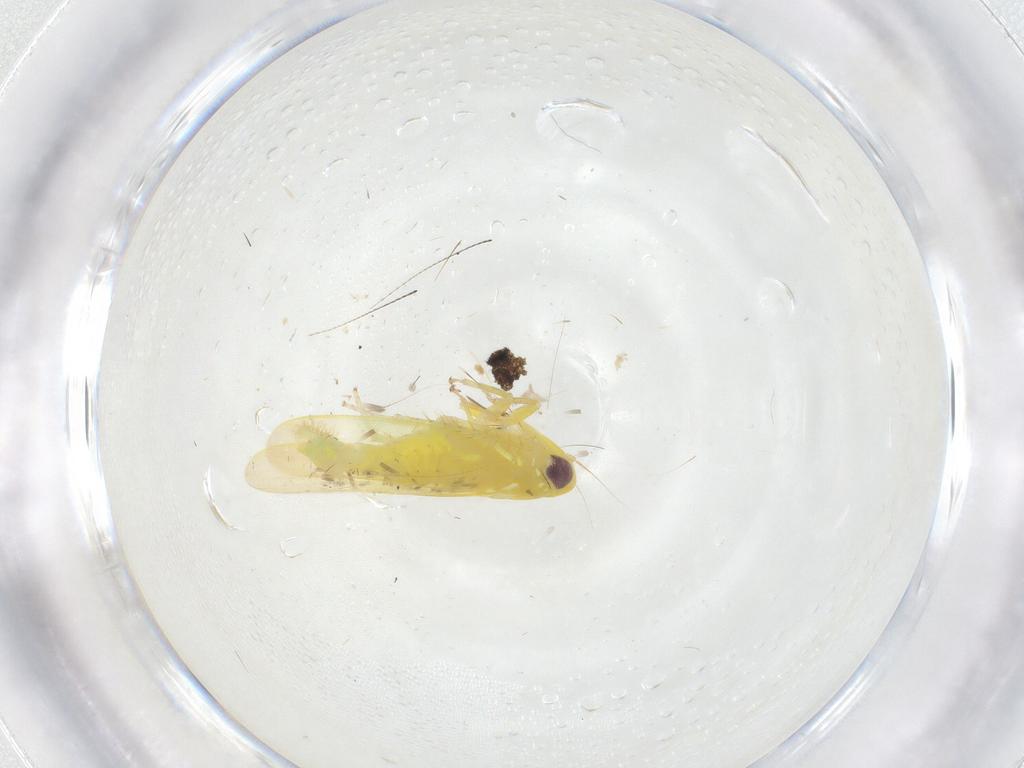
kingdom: Animalia
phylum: Arthropoda
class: Insecta
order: Hemiptera
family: Cicadellidae
